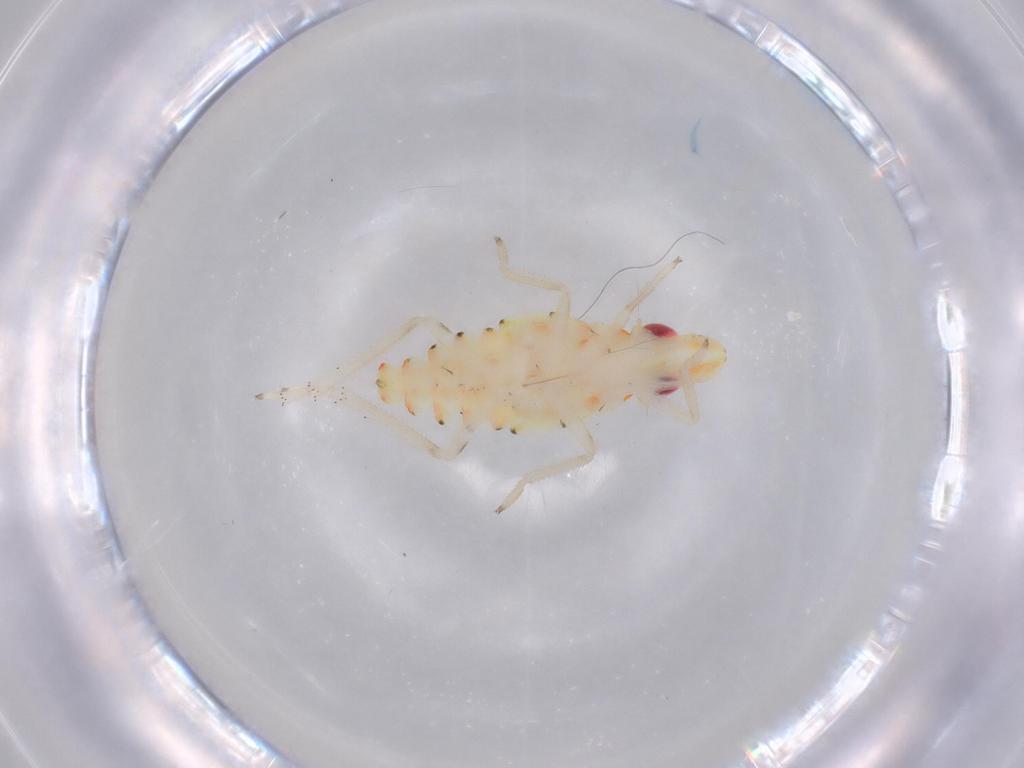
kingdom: Animalia
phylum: Arthropoda
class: Insecta
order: Hemiptera
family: Tropiduchidae
